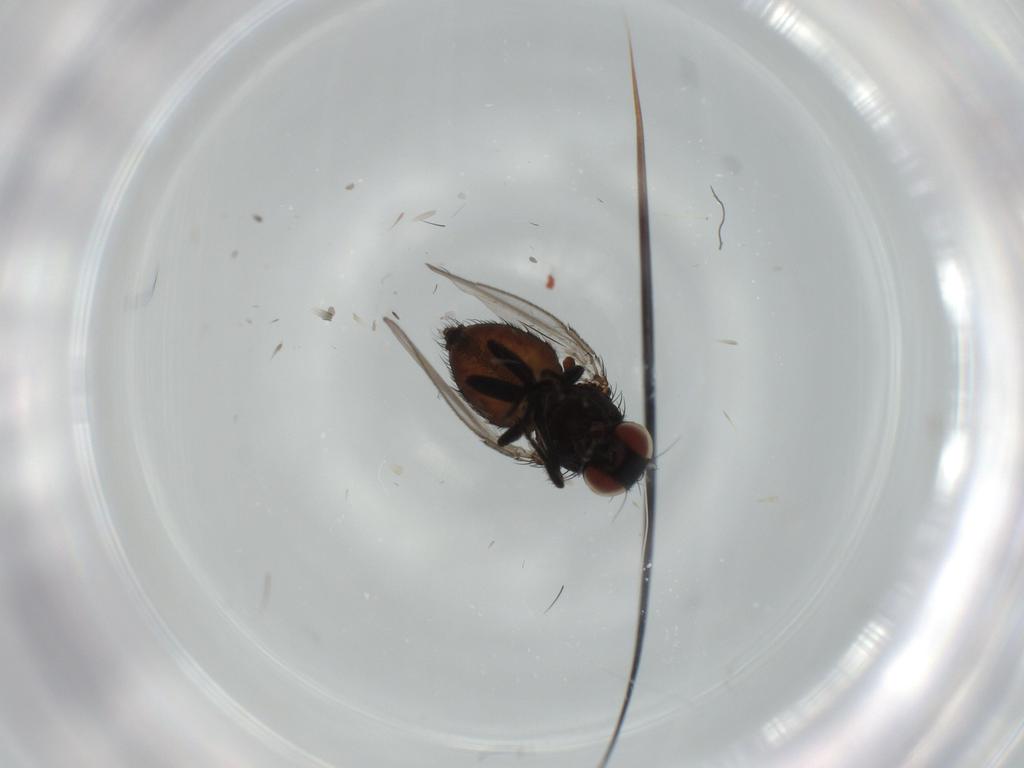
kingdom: Animalia
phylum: Arthropoda
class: Insecta
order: Diptera
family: Milichiidae
